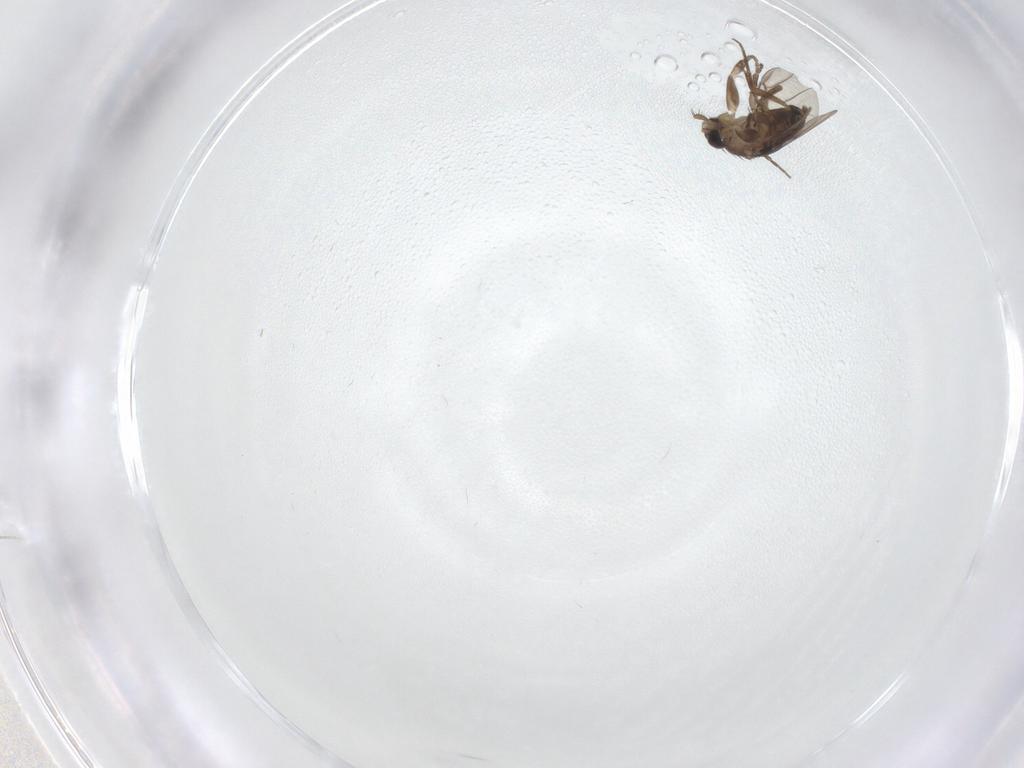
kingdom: Animalia
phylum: Arthropoda
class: Insecta
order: Diptera
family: Phoridae
